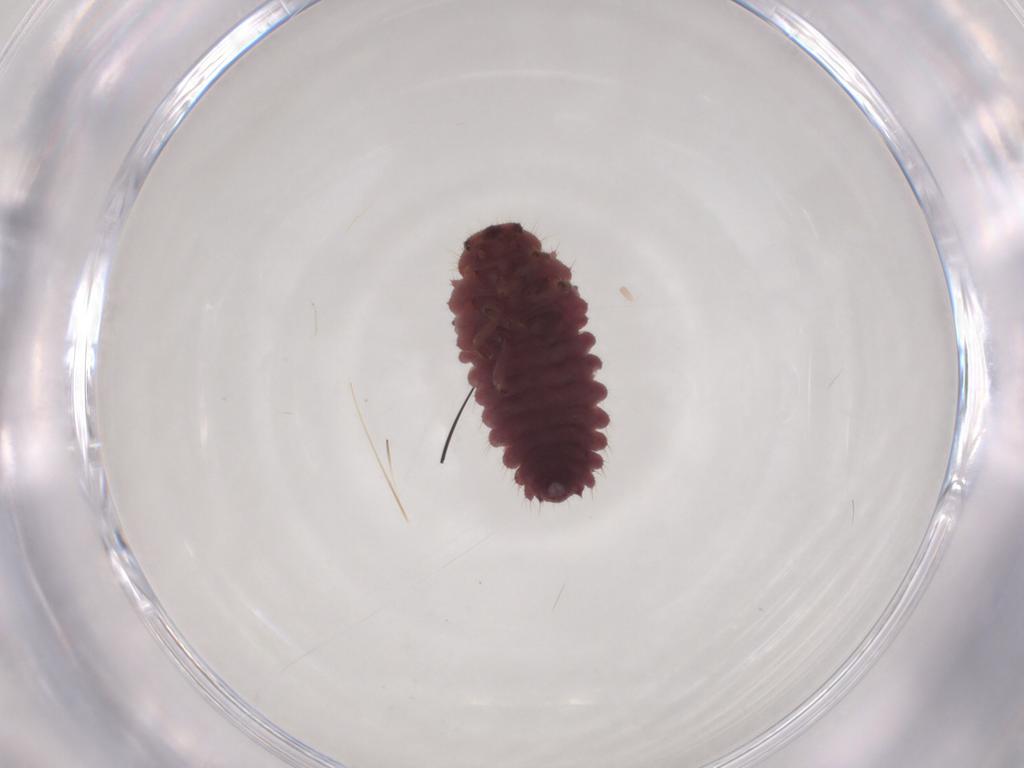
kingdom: Animalia
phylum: Arthropoda
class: Insecta
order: Coleoptera
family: Coccinellidae
